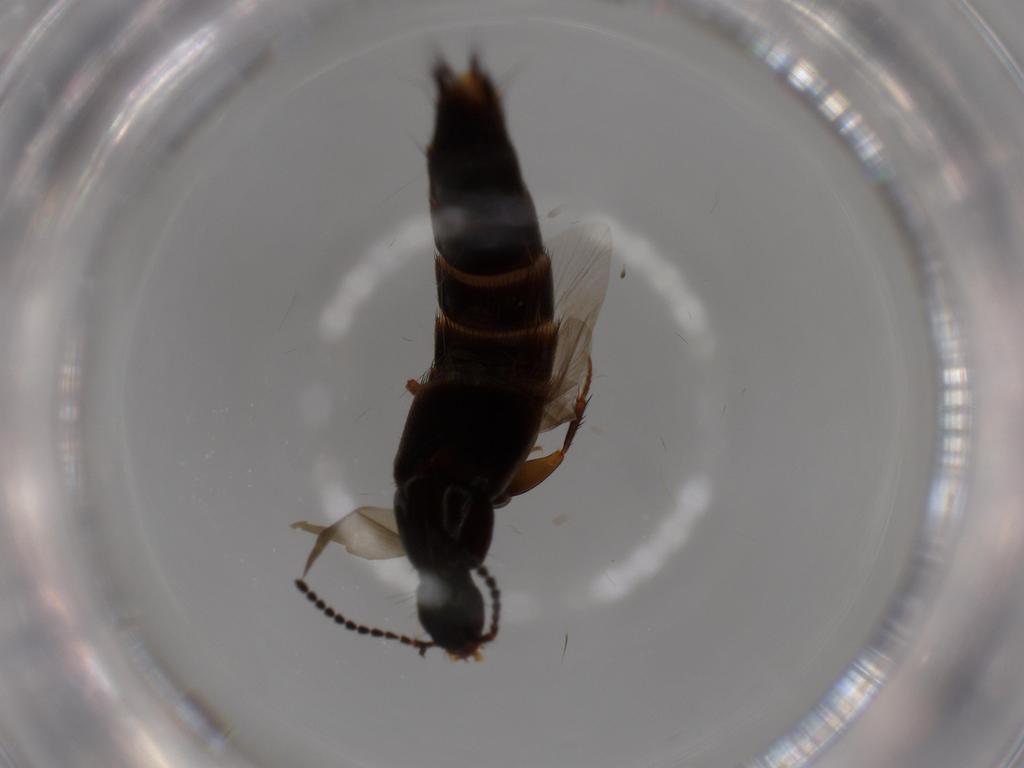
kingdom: Animalia
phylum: Arthropoda
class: Insecta
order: Coleoptera
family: Staphylinidae
